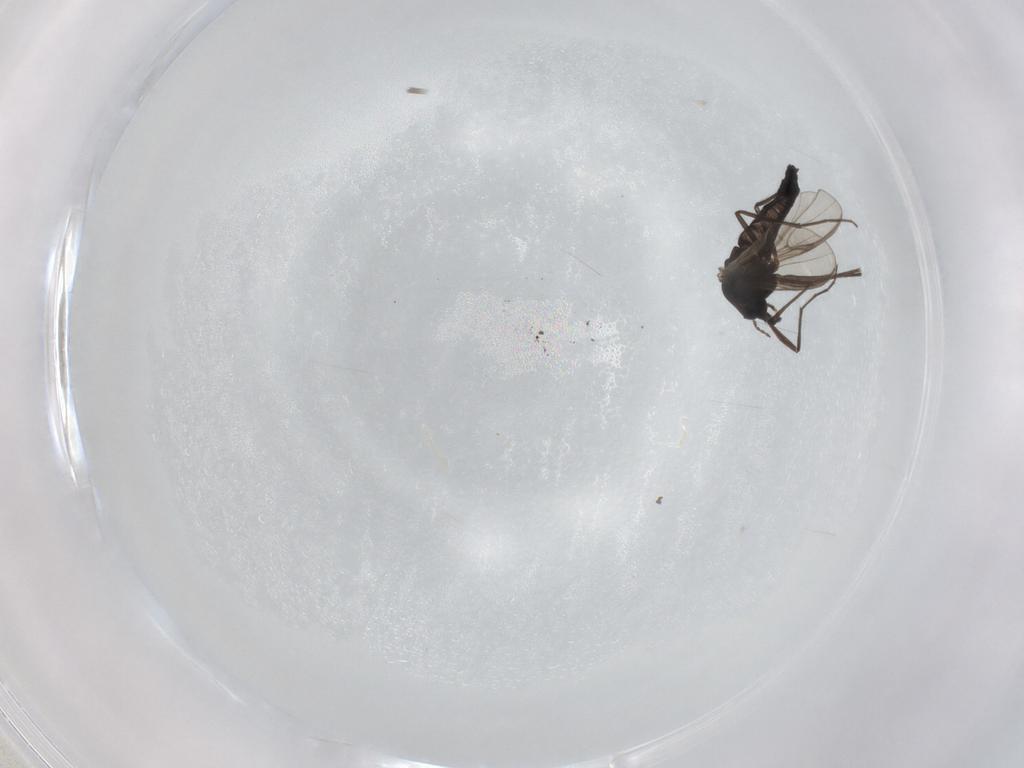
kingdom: Animalia
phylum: Arthropoda
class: Insecta
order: Diptera
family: Chironomidae
